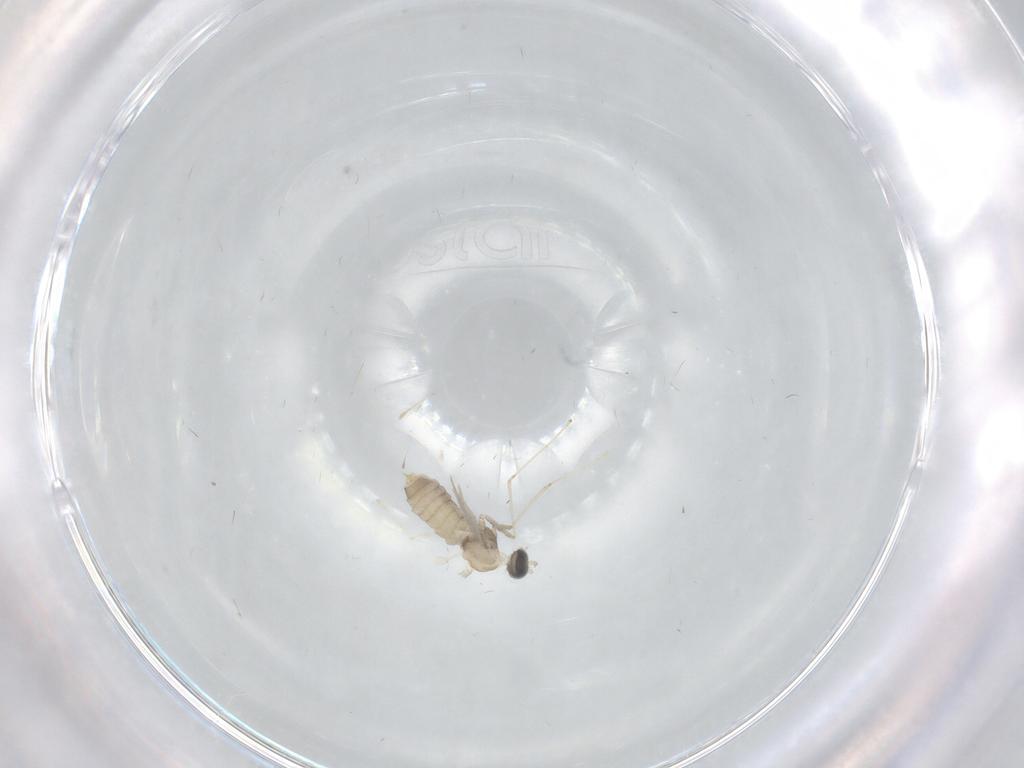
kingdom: Animalia
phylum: Arthropoda
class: Insecta
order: Diptera
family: Cecidomyiidae
